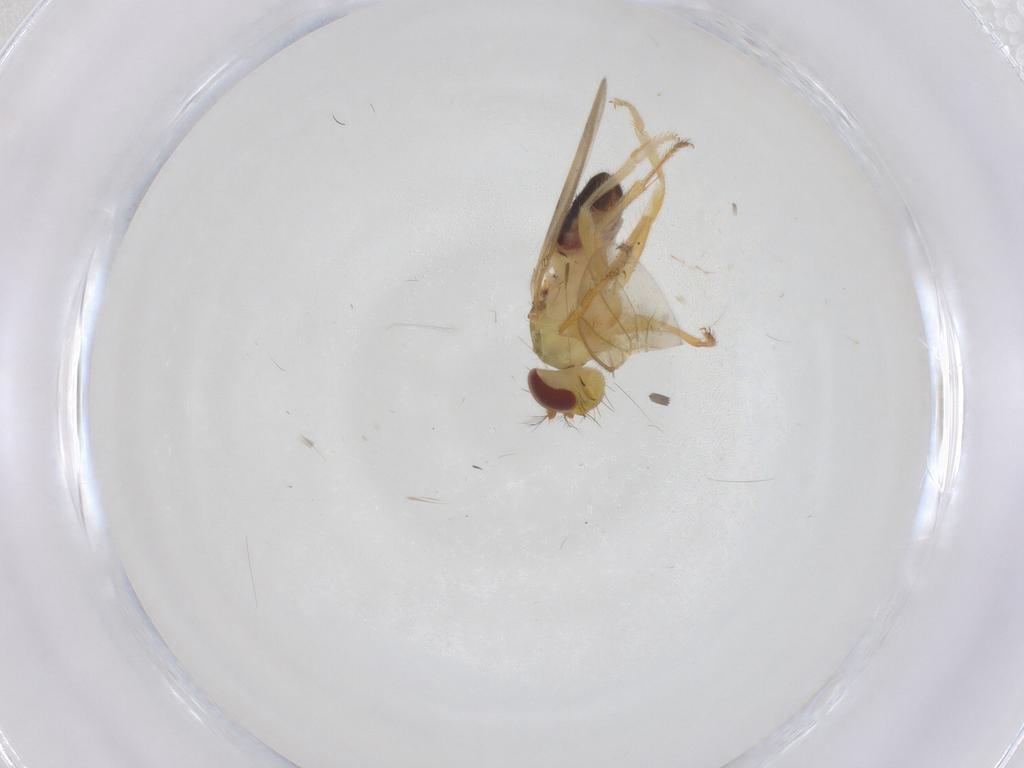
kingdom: Animalia
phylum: Arthropoda
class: Insecta
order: Diptera
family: Periscelididae
